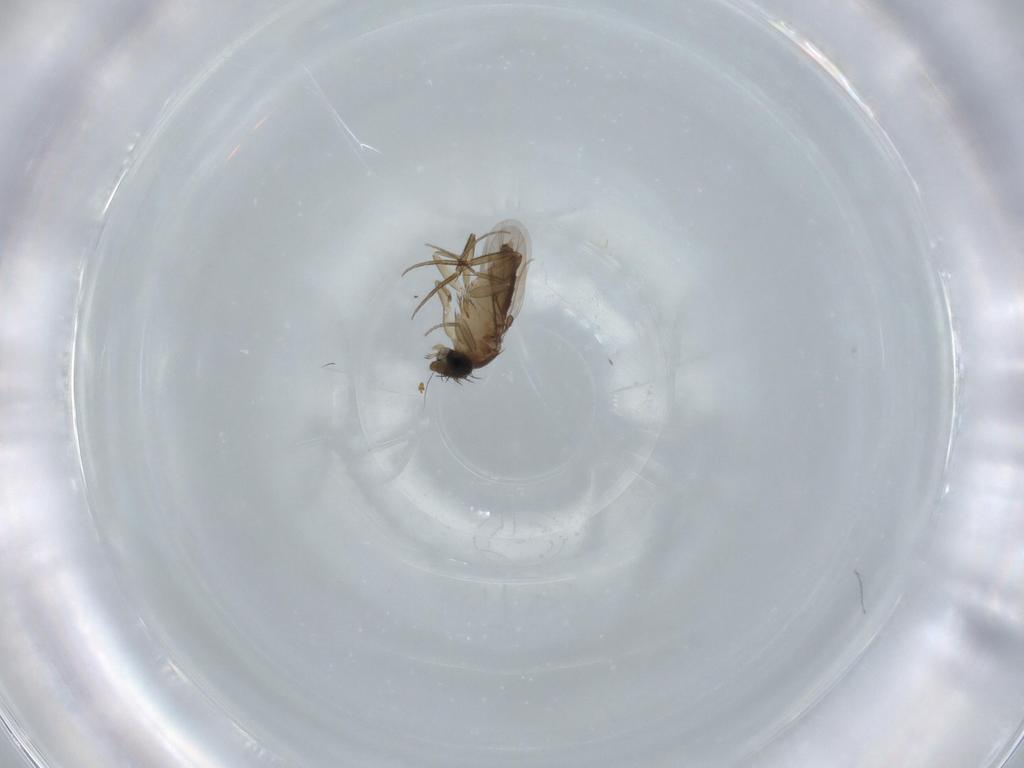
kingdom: Animalia
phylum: Arthropoda
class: Insecta
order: Diptera
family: Phoridae
